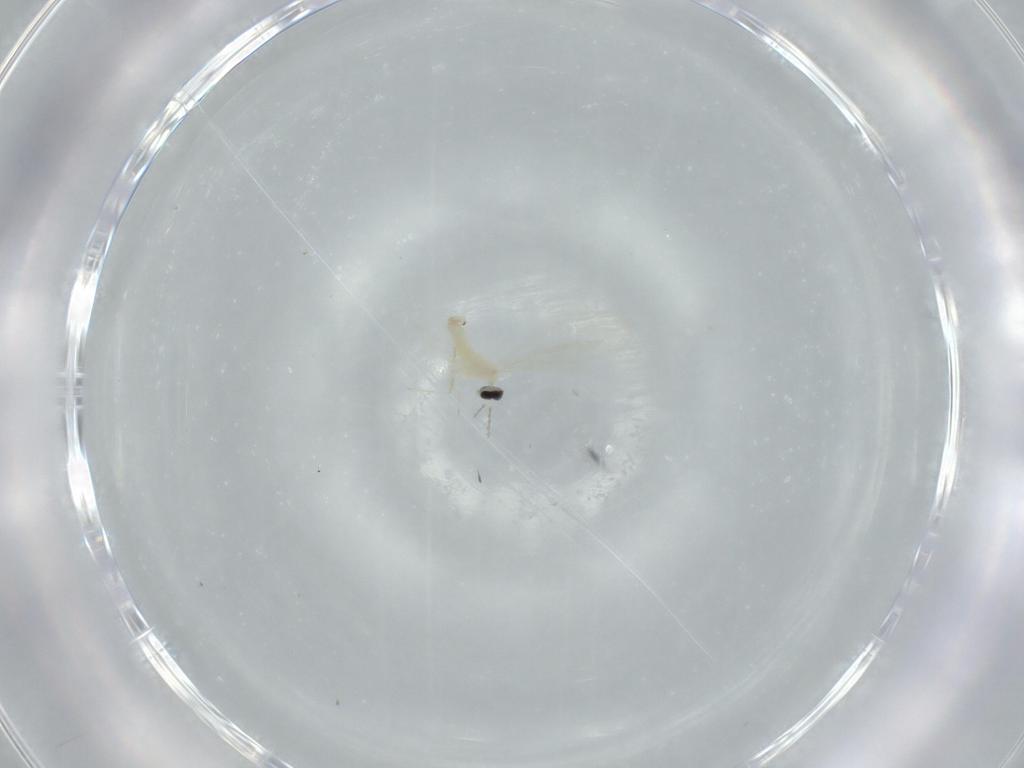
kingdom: Animalia
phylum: Arthropoda
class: Insecta
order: Diptera
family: Cecidomyiidae
